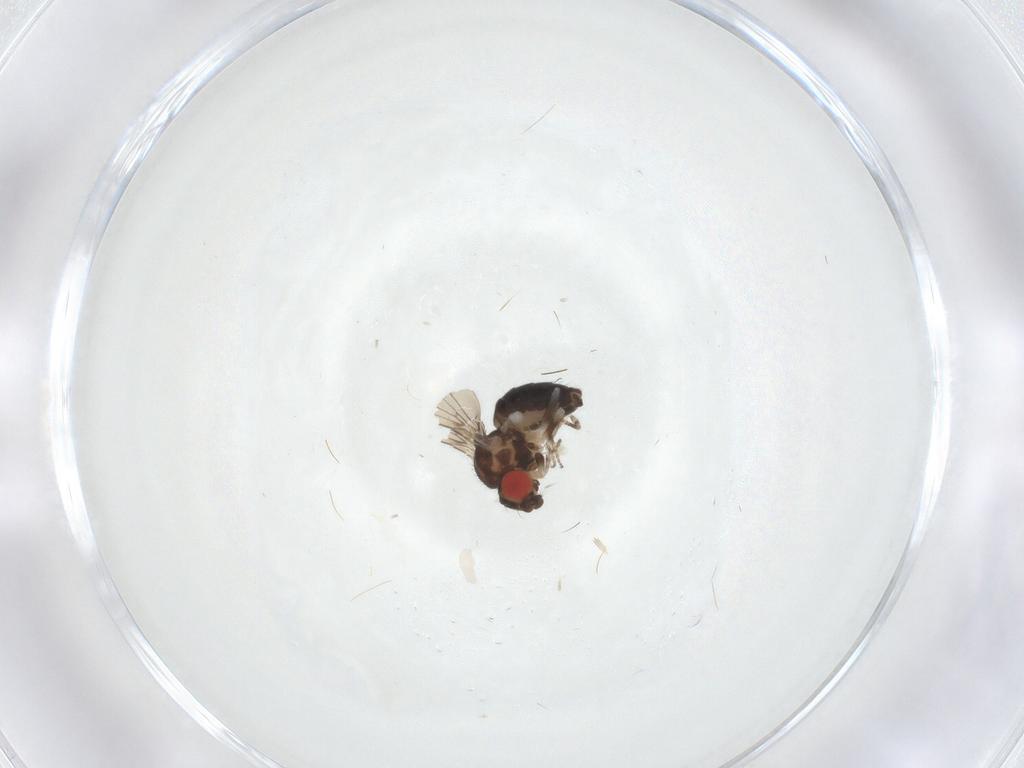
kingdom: Animalia
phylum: Arthropoda
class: Insecta
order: Diptera
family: Drosophilidae
